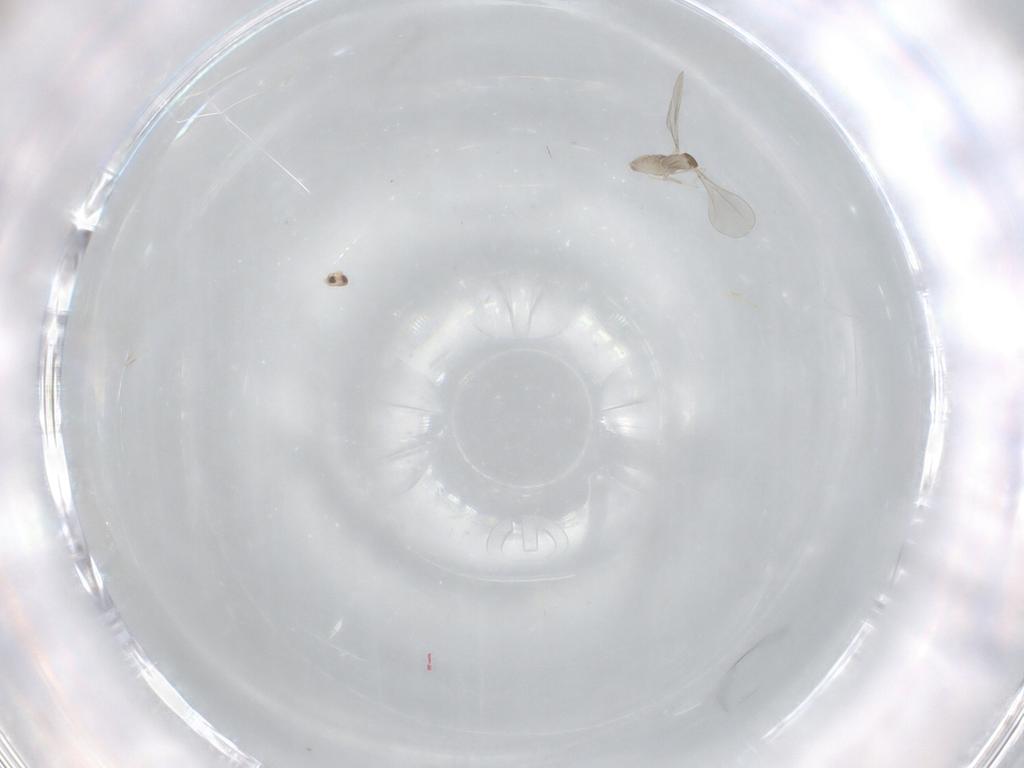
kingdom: Animalia
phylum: Arthropoda
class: Insecta
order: Diptera
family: Cecidomyiidae
